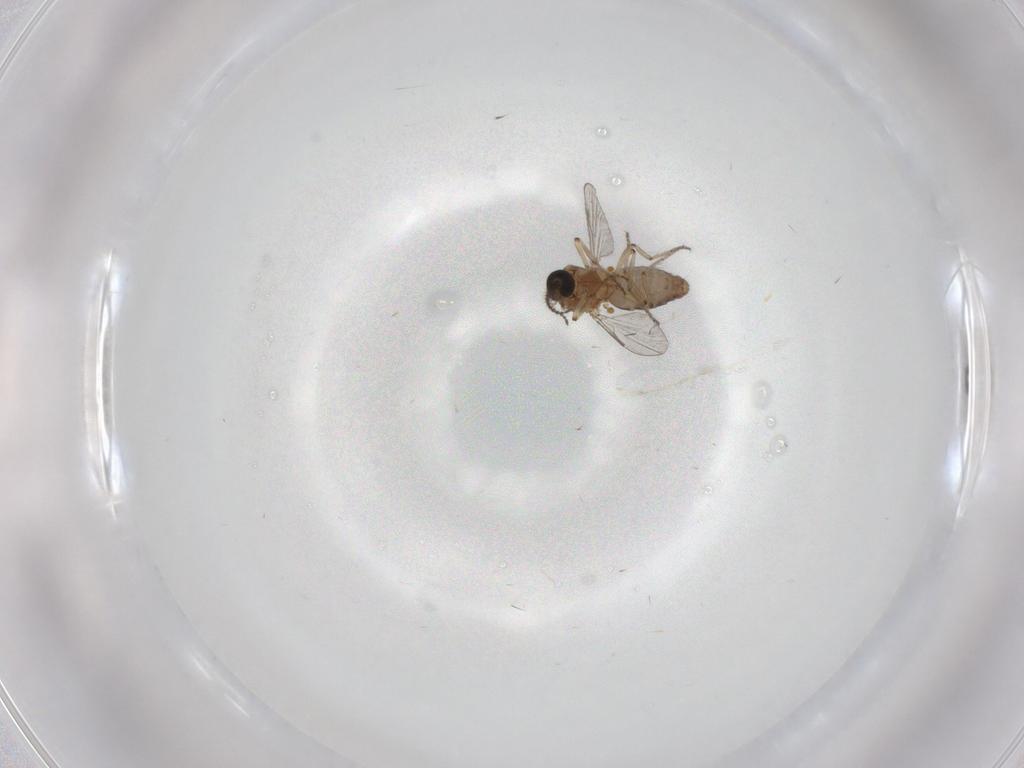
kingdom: Animalia
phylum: Arthropoda
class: Insecta
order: Diptera
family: Ceratopogonidae
